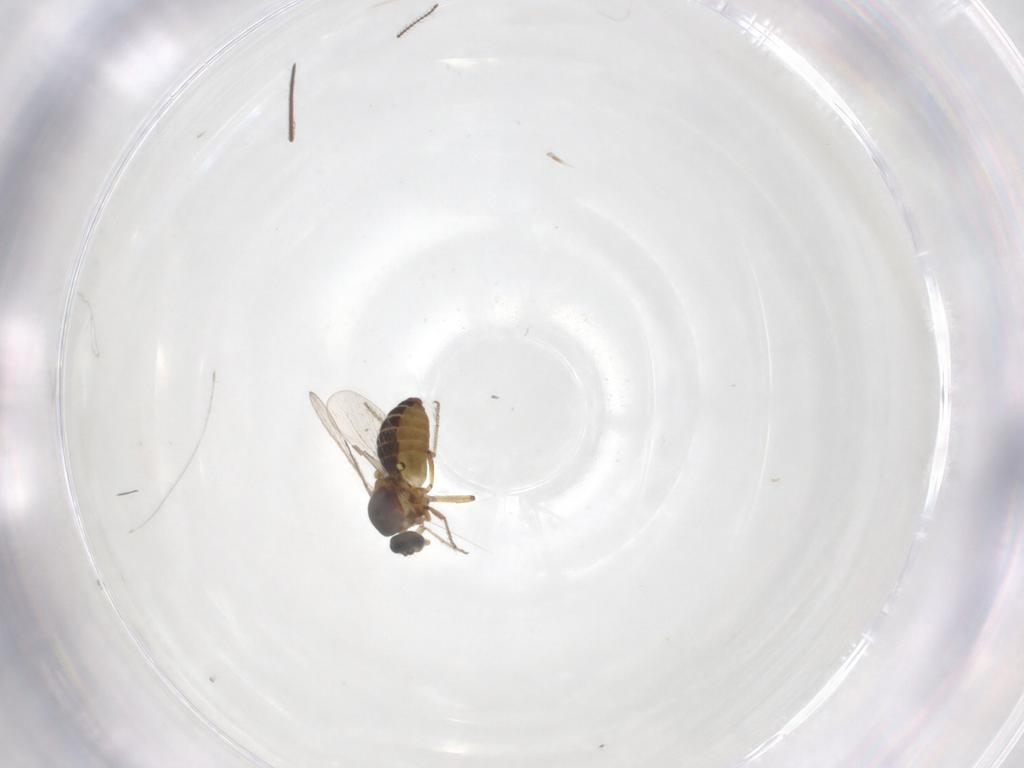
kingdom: Animalia
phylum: Arthropoda
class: Insecta
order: Diptera
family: Ceratopogonidae
